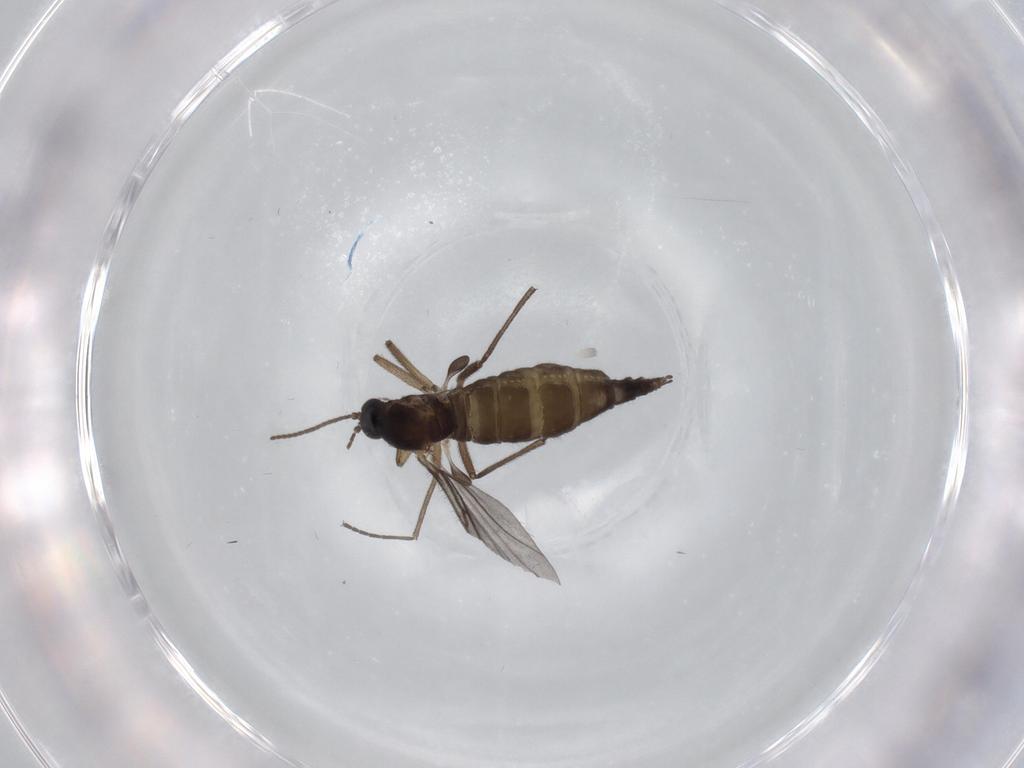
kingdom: Animalia
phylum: Arthropoda
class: Insecta
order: Diptera
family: Sciaridae
